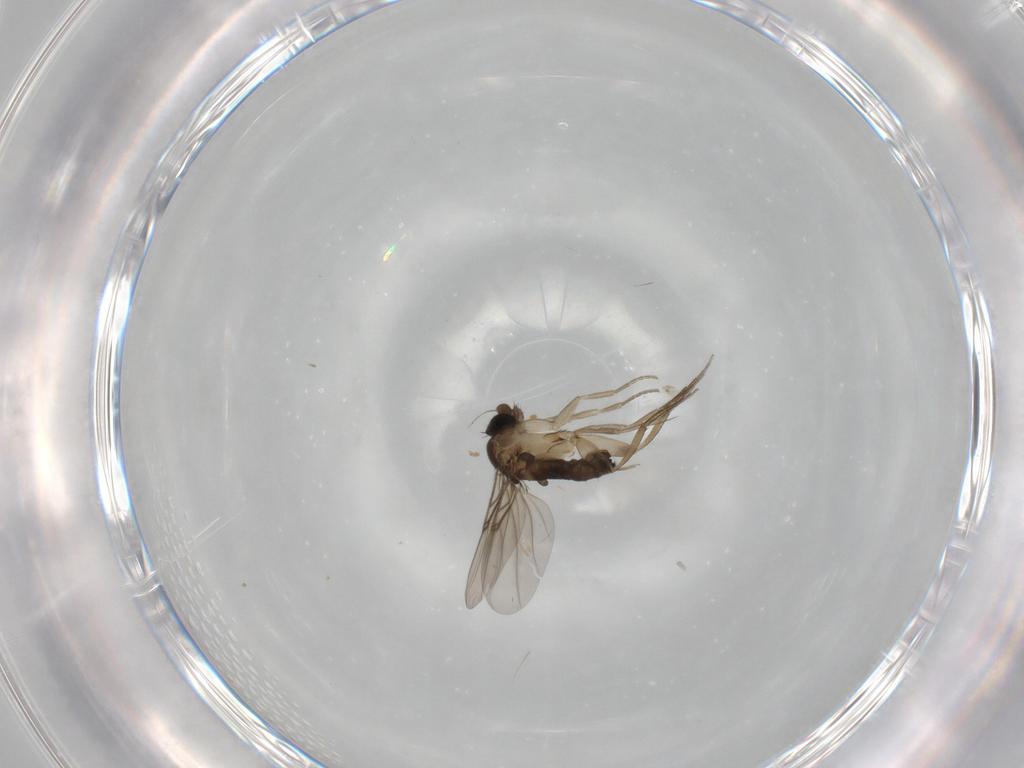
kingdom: Animalia
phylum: Arthropoda
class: Insecta
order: Diptera
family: Phoridae
